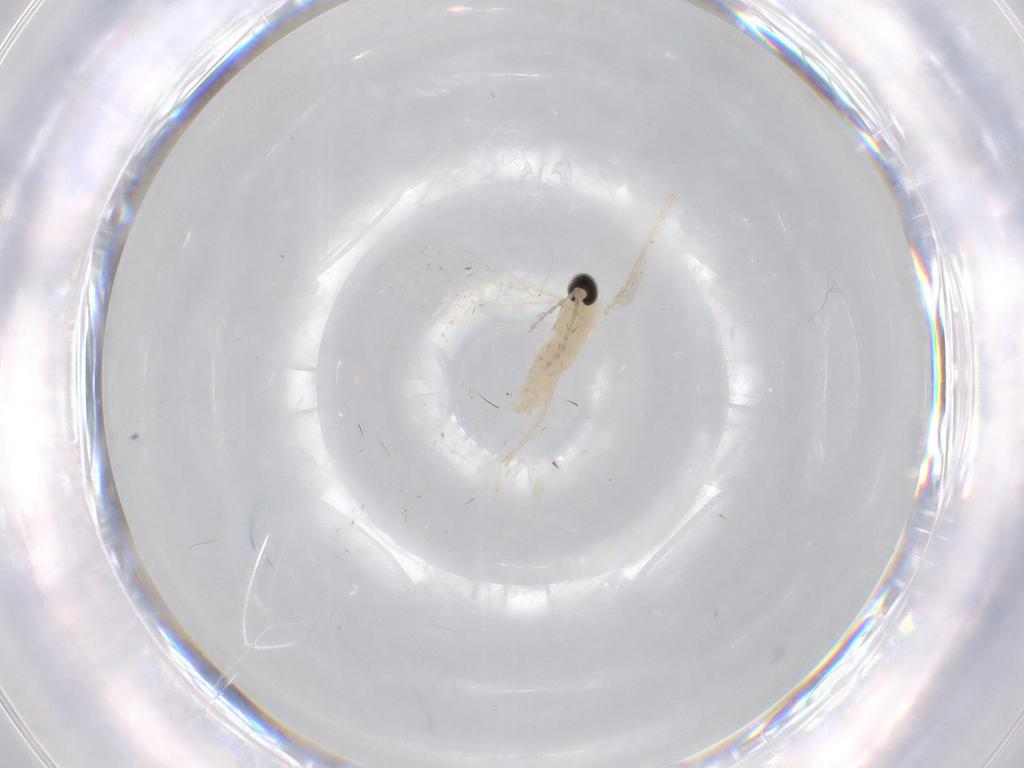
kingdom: Animalia
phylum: Arthropoda
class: Insecta
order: Diptera
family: Cecidomyiidae
